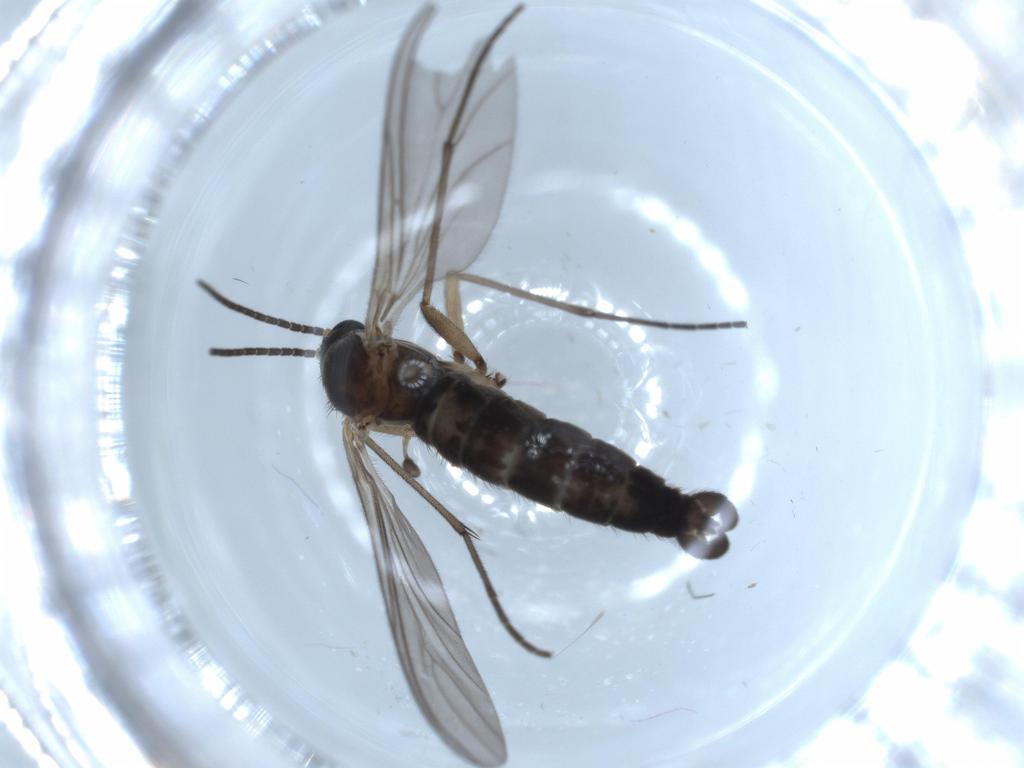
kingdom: Animalia
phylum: Arthropoda
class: Insecta
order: Diptera
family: Sciaridae
